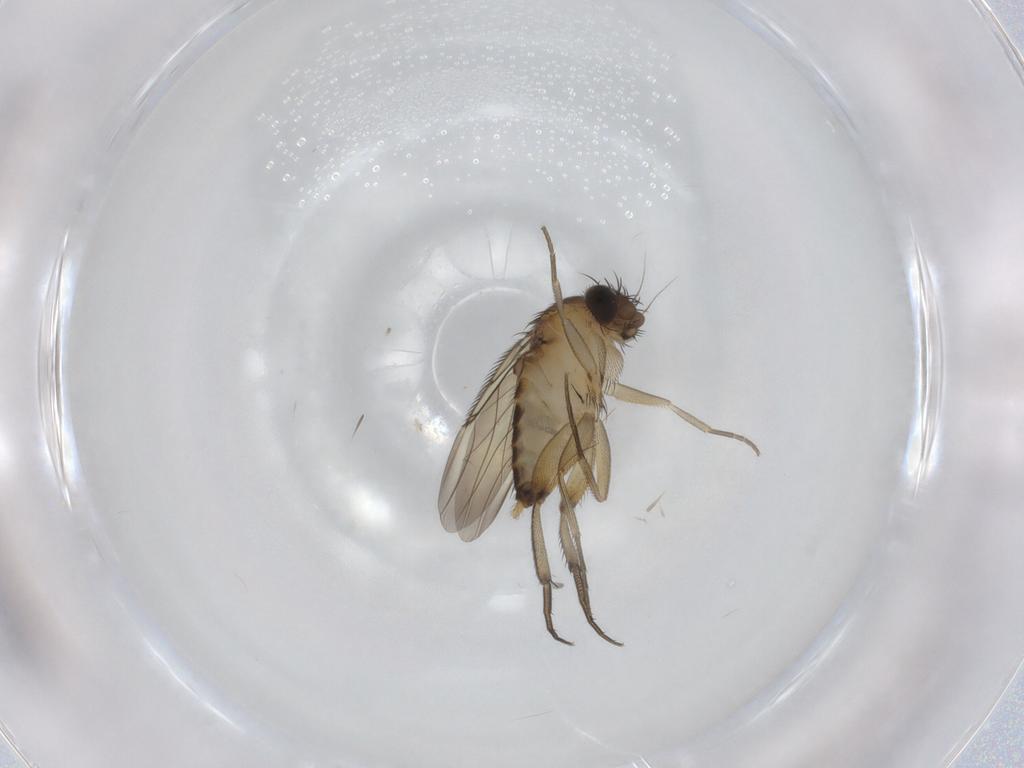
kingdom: Animalia
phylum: Arthropoda
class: Insecta
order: Diptera
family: Phoridae
